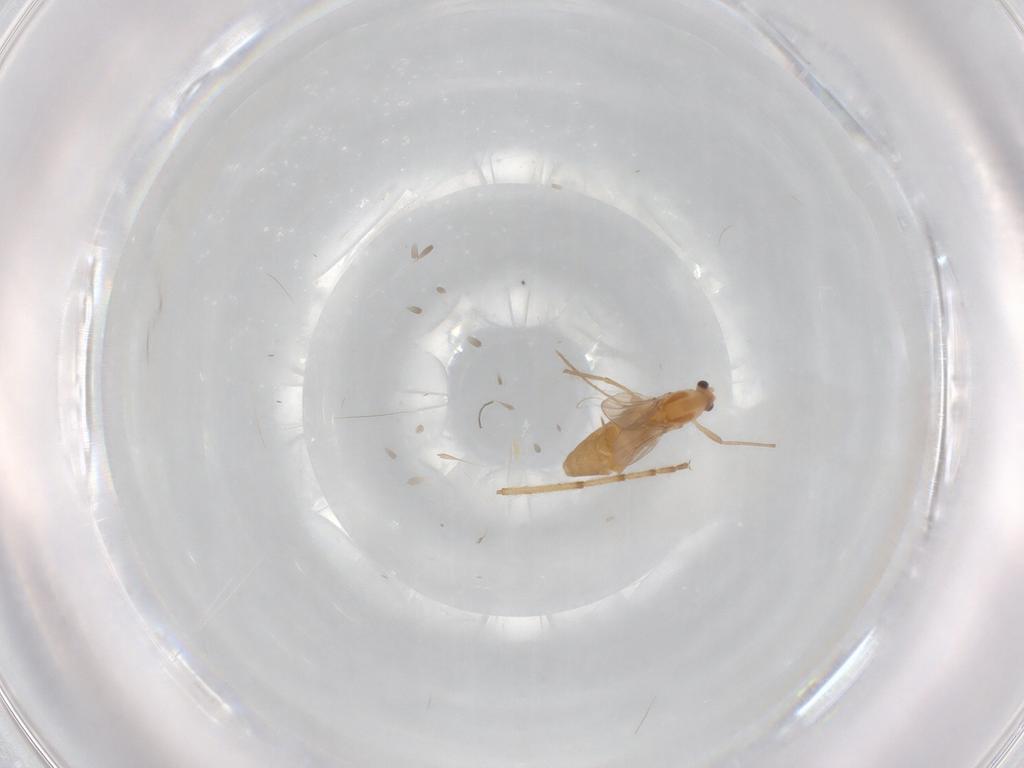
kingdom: Animalia
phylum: Arthropoda
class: Insecta
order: Diptera
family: Chironomidae
